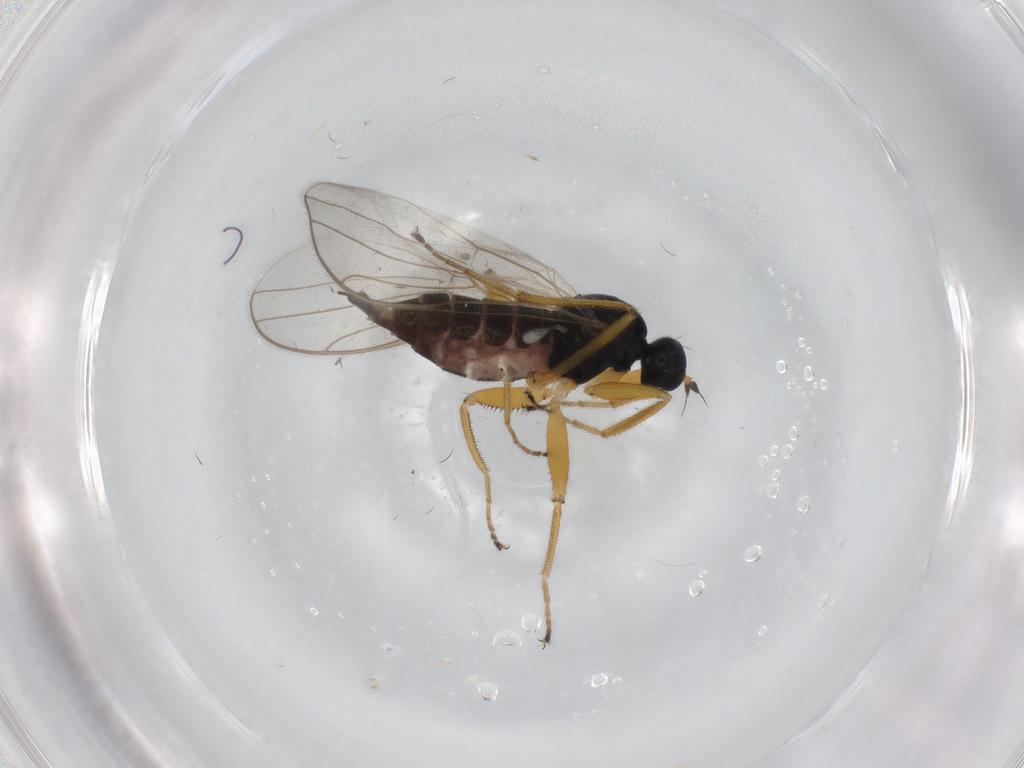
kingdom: Animalia
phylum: Arthropoda
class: Insecta
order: Diptera
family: Hybotidae
